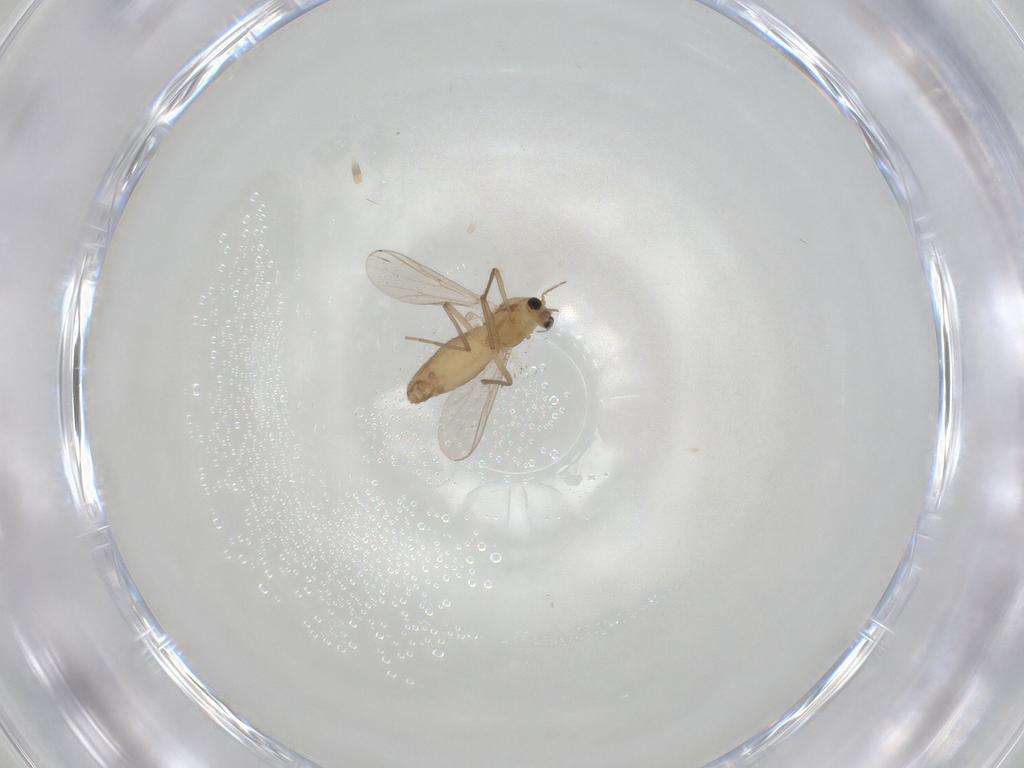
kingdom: Animalia
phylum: Arthropoda
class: Insecta
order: Diptera
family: Chironomidae
